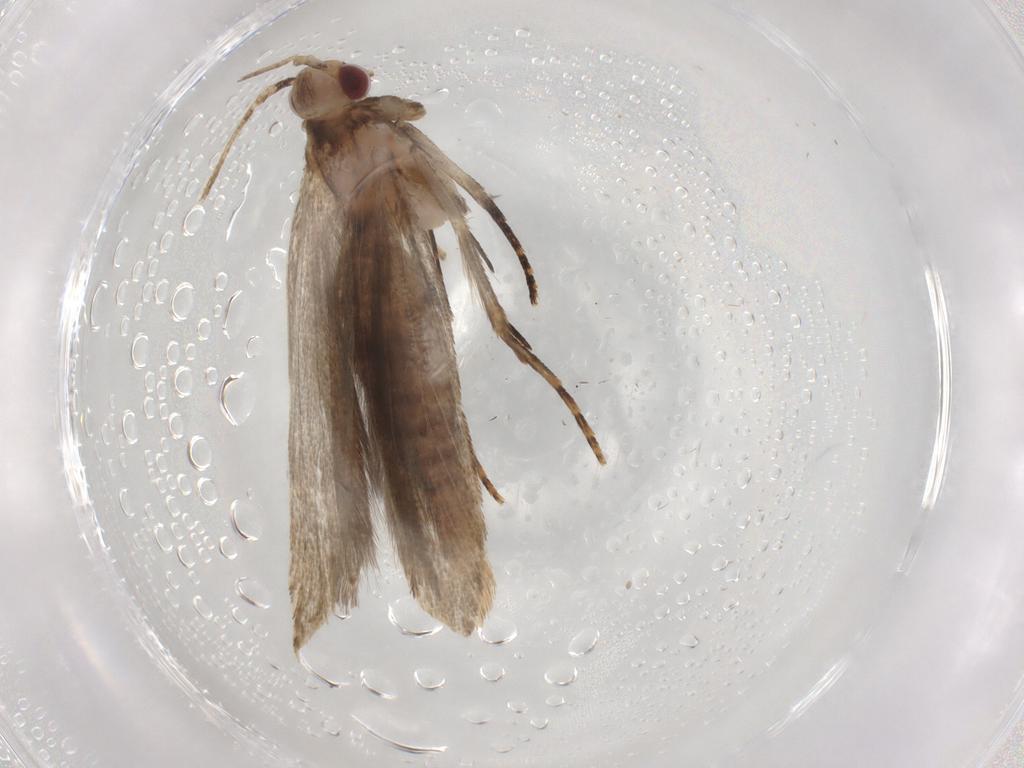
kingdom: Animalia
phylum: Arthropoda
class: Insecta
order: Lepidoptera
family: Gelechiidae
